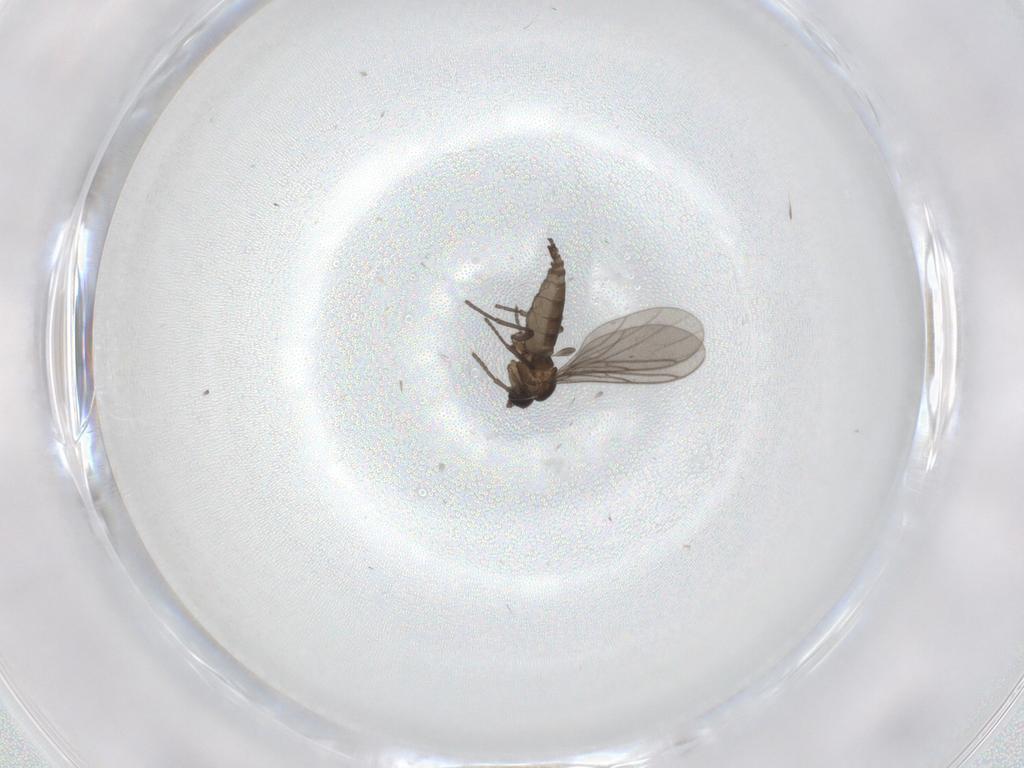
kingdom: Animalia
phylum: Arthropoda
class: Insecta
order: Diptera
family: Sciaridae
